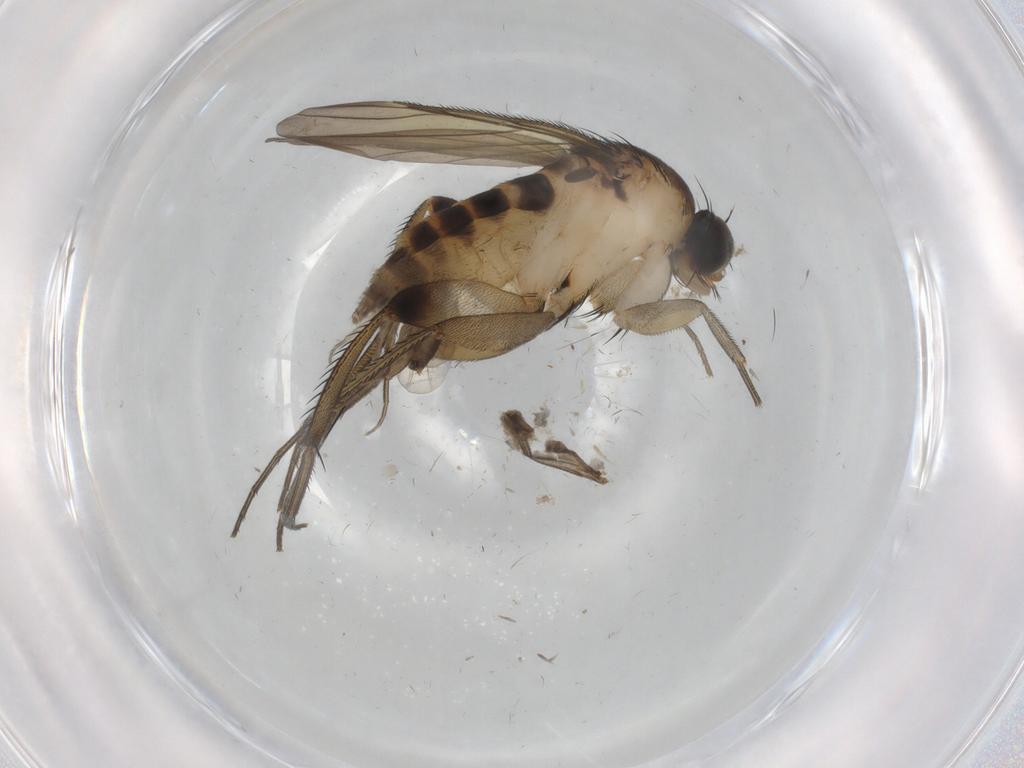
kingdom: Animalia
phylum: Arthropoda
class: Insecta
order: Diptera
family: Phoridae
